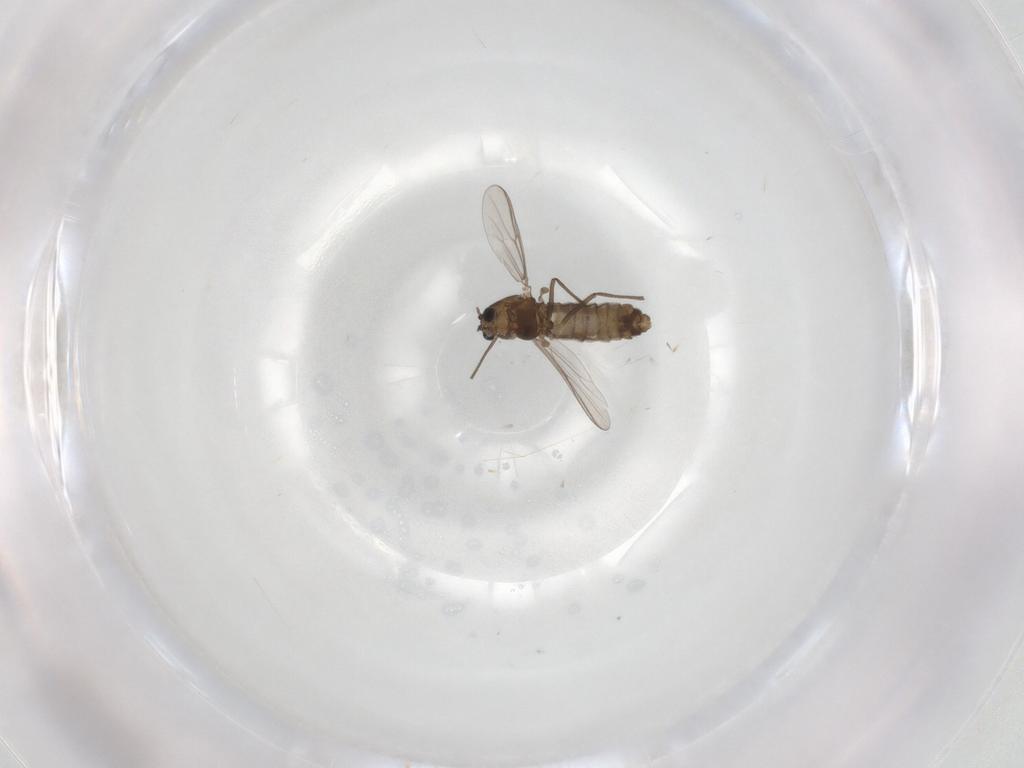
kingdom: Animalia
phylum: Arthropoda
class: Insecta
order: Diptera
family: Chironomidae
